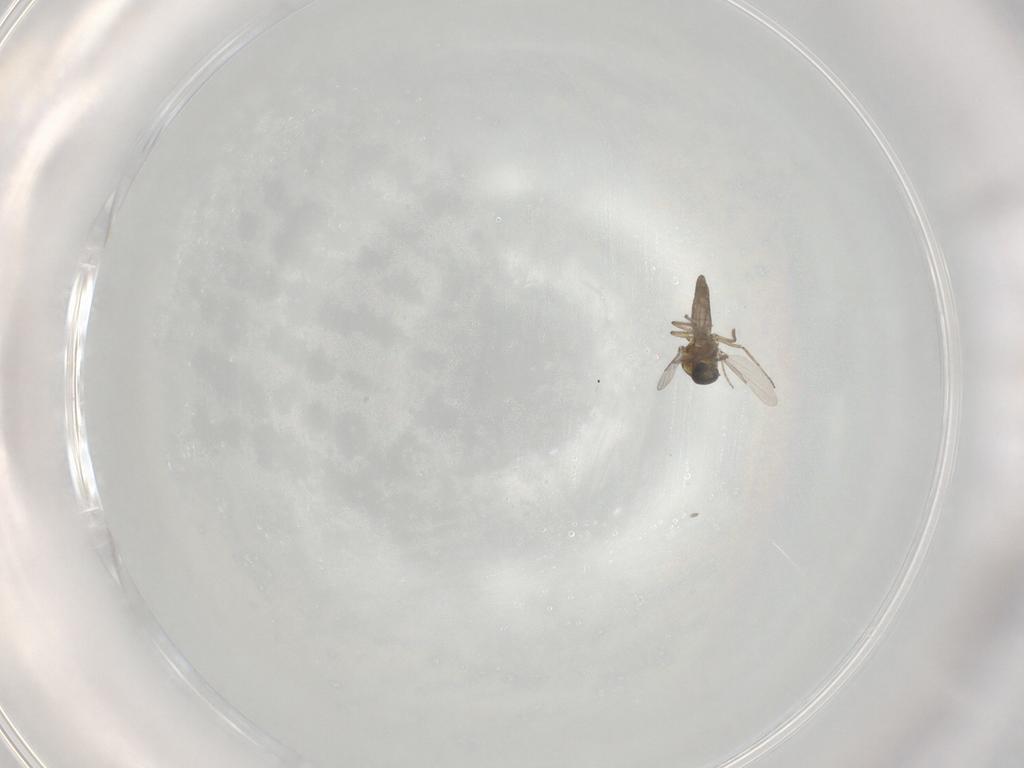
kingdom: Animalia
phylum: Arthropoda
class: Insecta
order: Diptera
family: Ceratopogonidae
